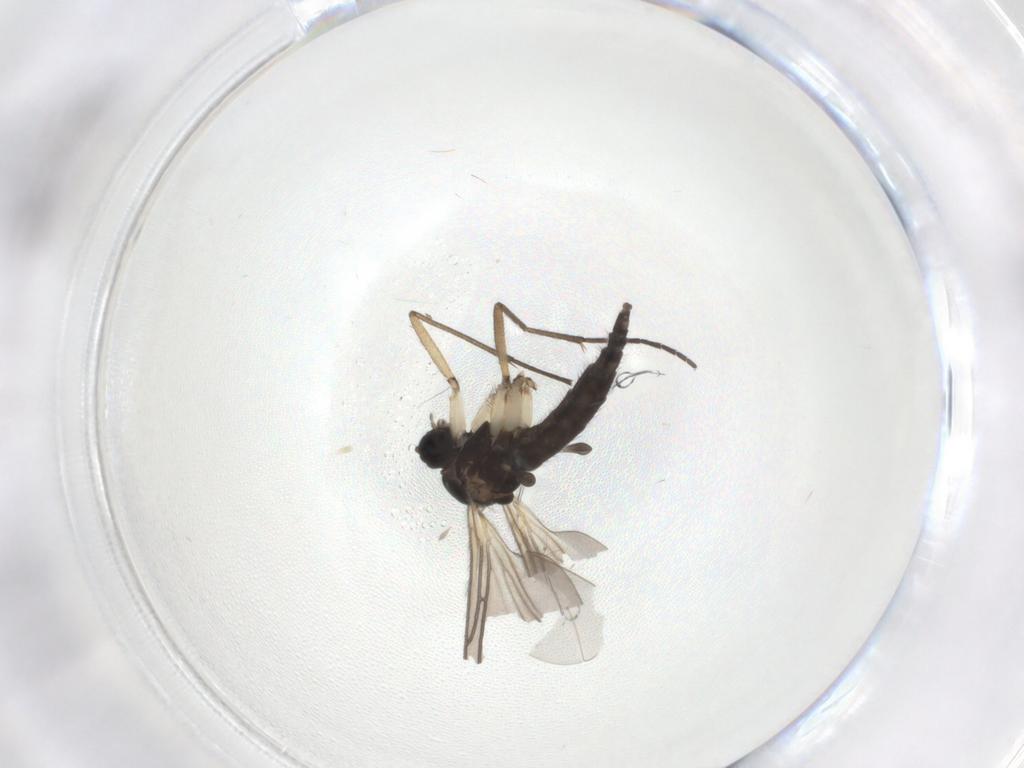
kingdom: Animalia
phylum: Arthropoda
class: Insecta
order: Diptera
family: Sciaridae
